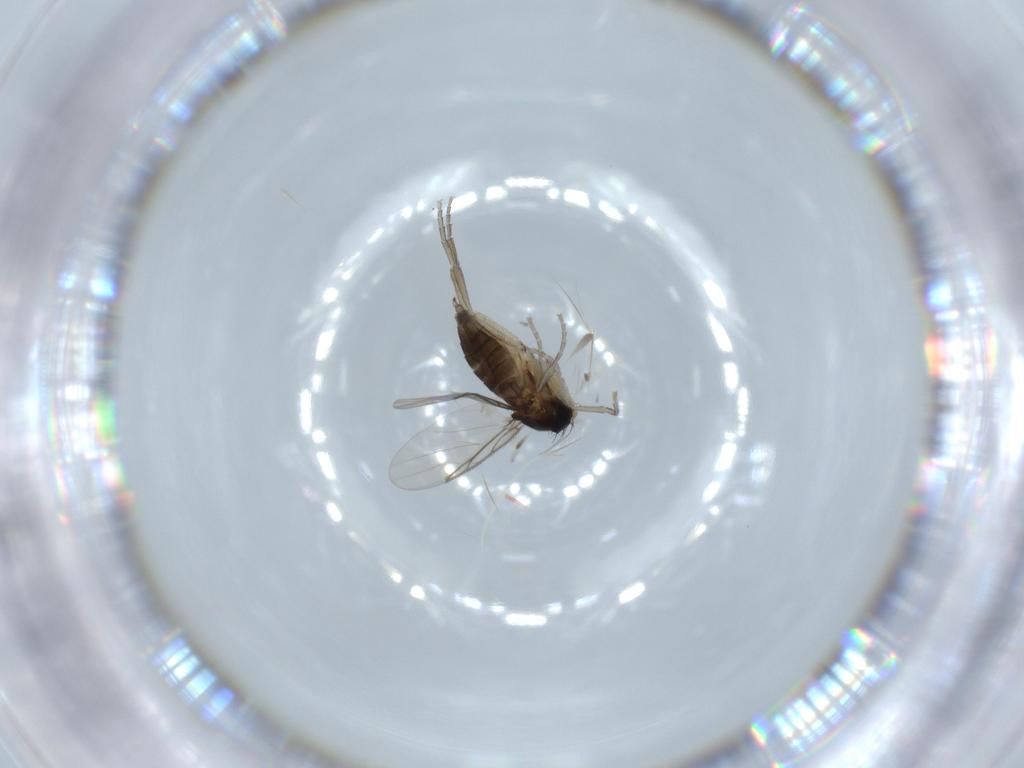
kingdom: Animalia
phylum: Arthropoda
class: Insecta
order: Diptera
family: Phoridae
